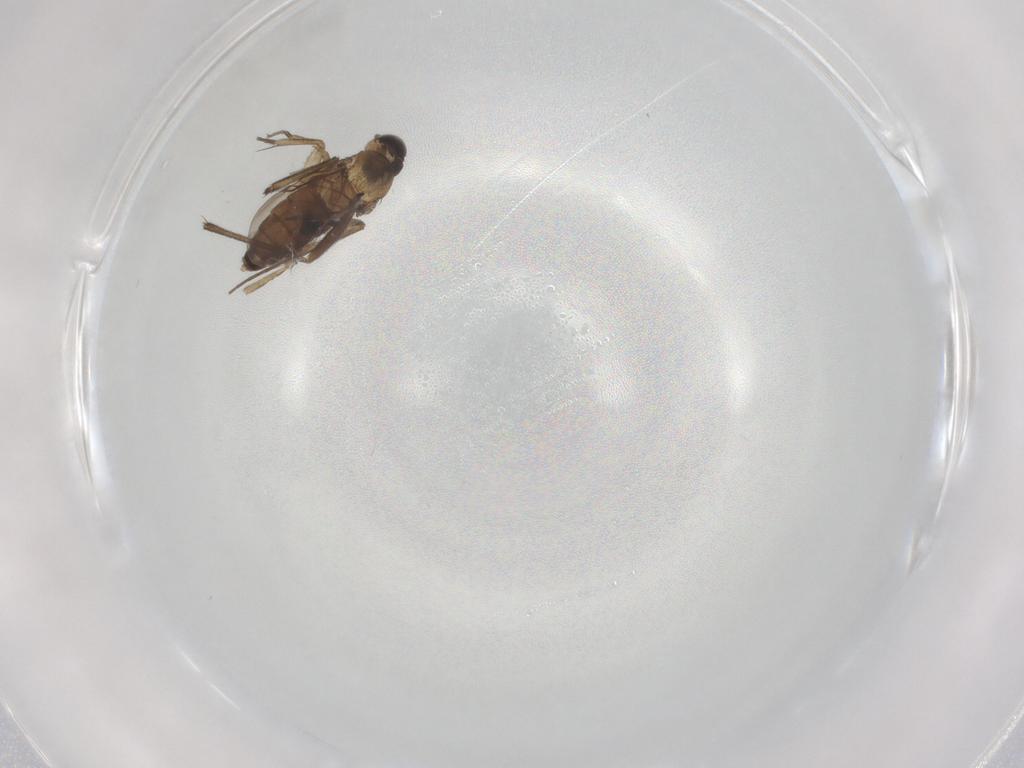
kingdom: Animalia
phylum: Arthropoda
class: Insecta
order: Diptera
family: Phoridae
